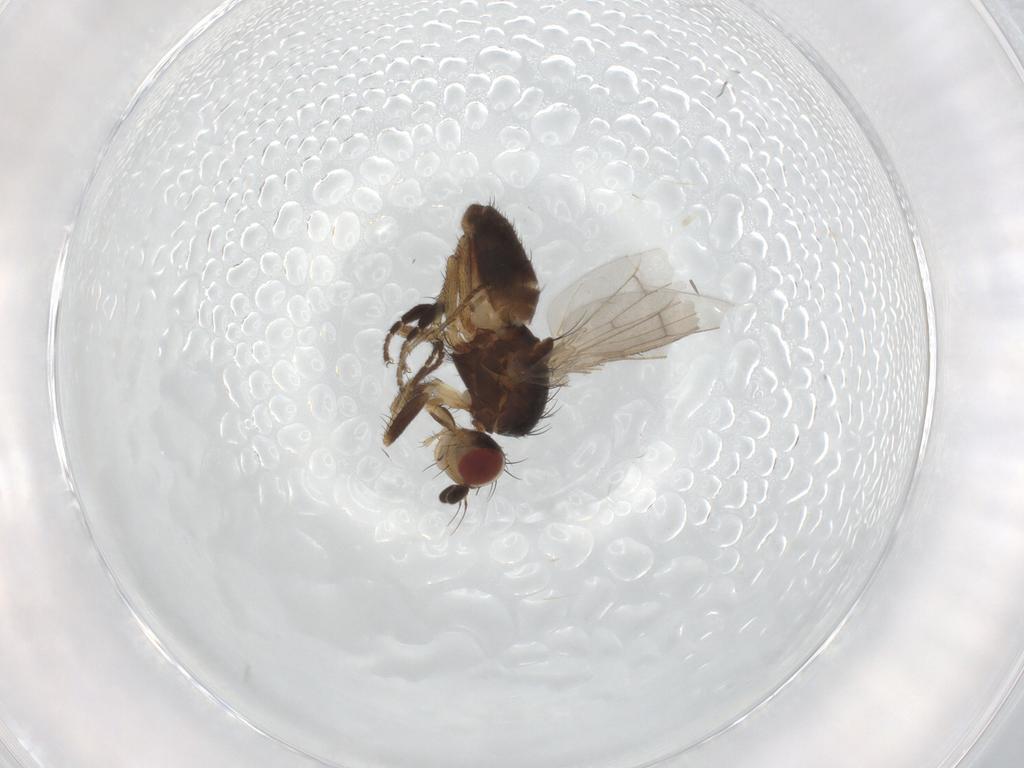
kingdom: Animalia
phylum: Arthropoda
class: Insecta
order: Diptera
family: Heleomyzidae
